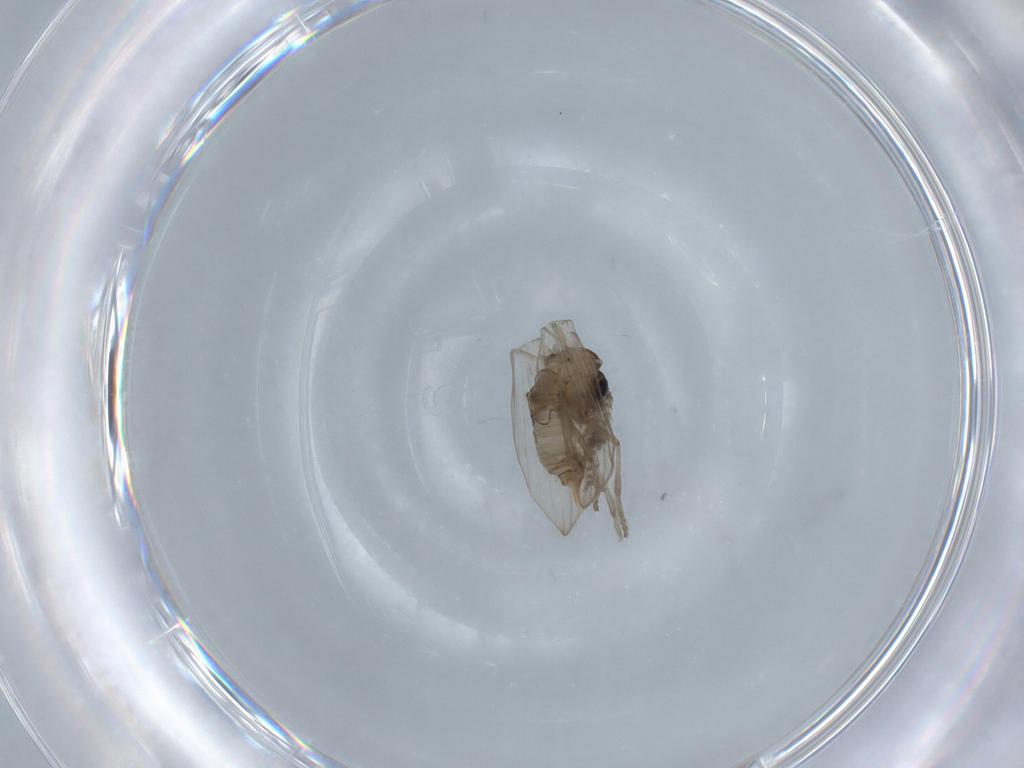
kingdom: Animalia
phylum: Arthropoda
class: Insecta
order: Diptera
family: Psychodidae
